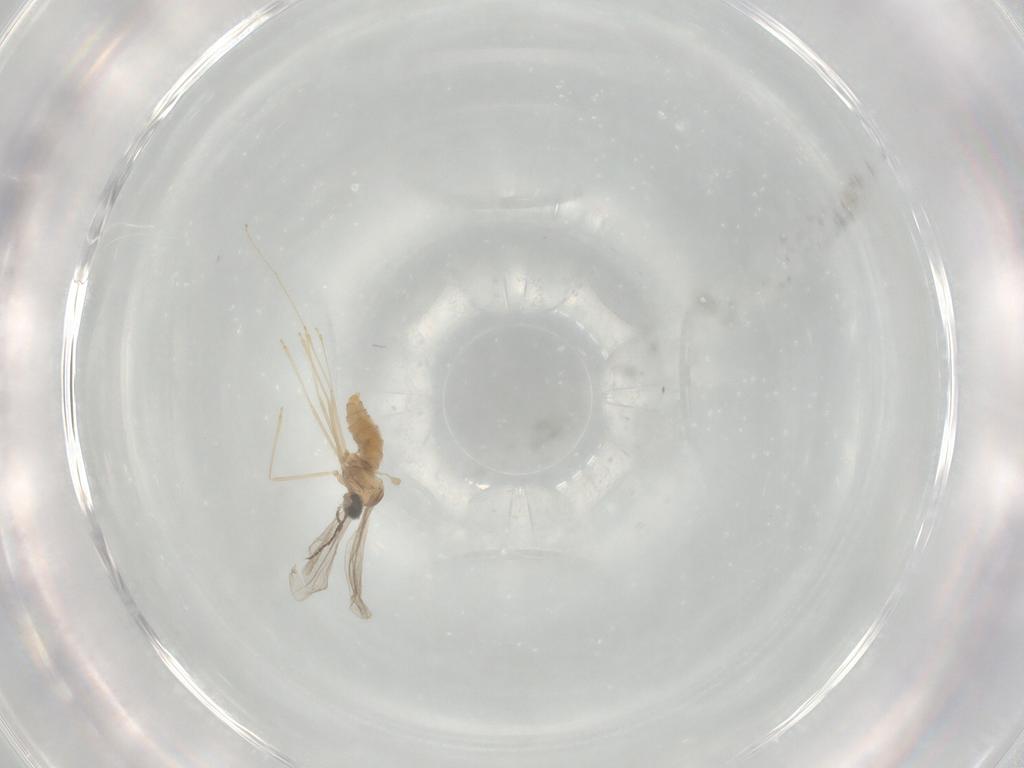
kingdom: Animalia
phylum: Arthropoda
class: Insecta
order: Diptera
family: Cecidomyiidae
